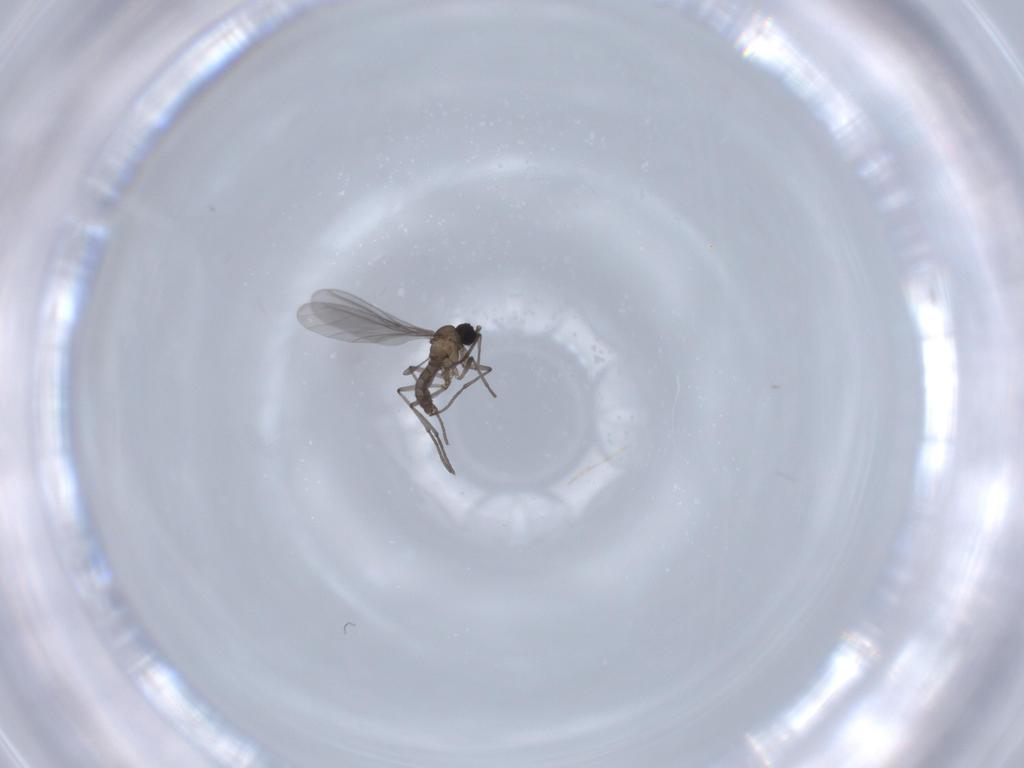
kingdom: Animalia
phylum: Arthropoda
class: Insecta
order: Diptera
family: Sciaridae
